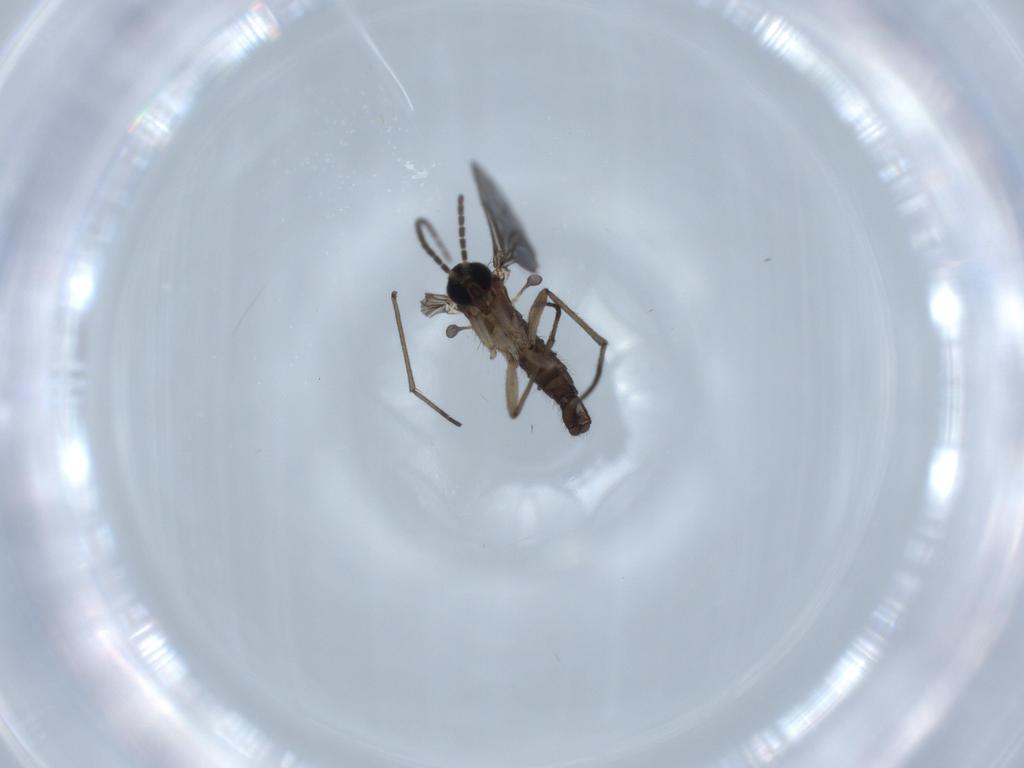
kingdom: Animalia
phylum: Arthropoda
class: Insecta
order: Diptera
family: Sciaridae
